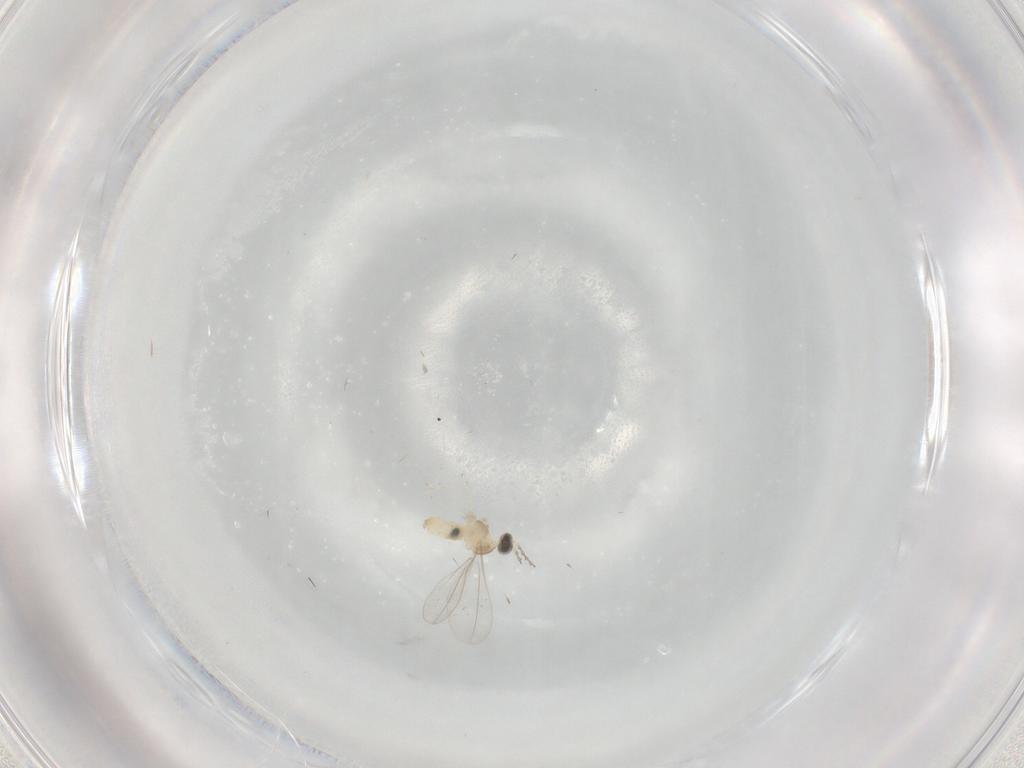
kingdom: Animalia
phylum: Arthropoda
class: Insecta
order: Diptera
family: Cecidomyiidae
